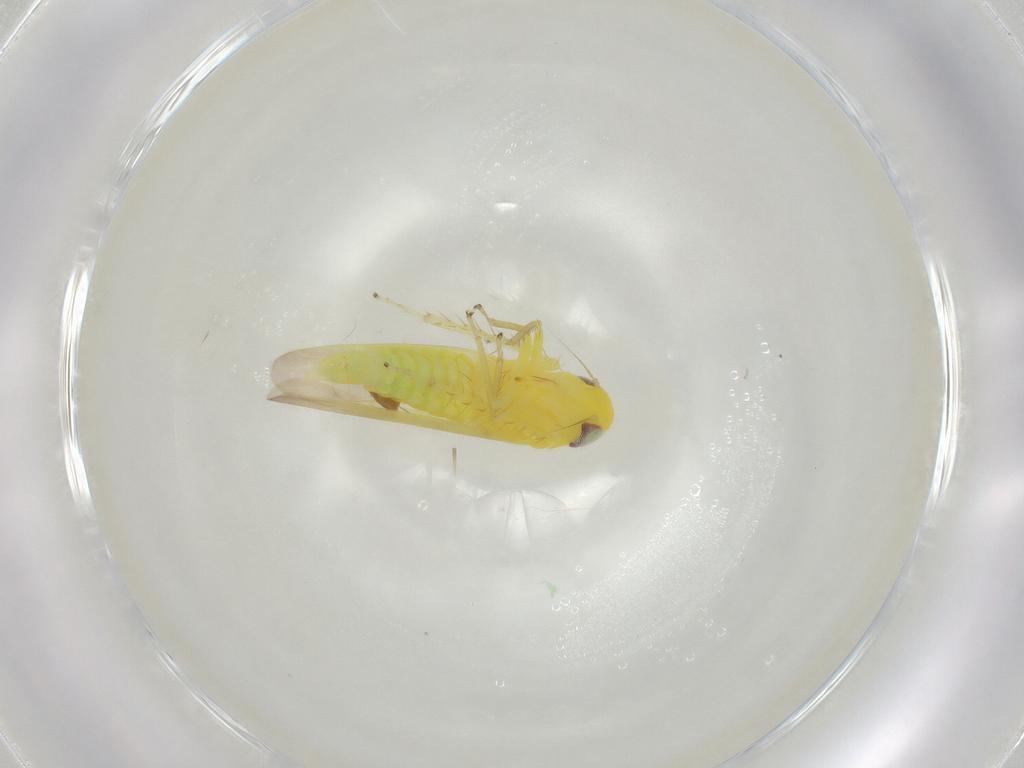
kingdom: Animalia
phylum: Arthropoda
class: Insecta
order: Hemiptera
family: Cicadellidae
